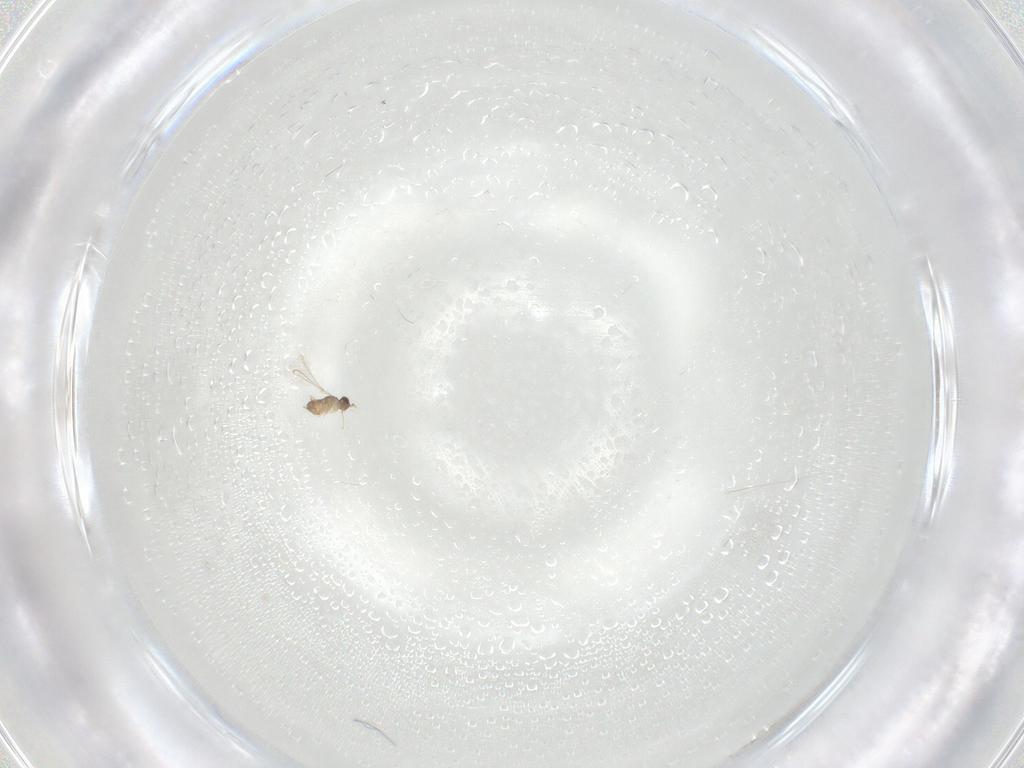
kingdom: Animalia
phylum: Arthropoda
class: Insecta
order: Hymenoptera
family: Mymaridae
